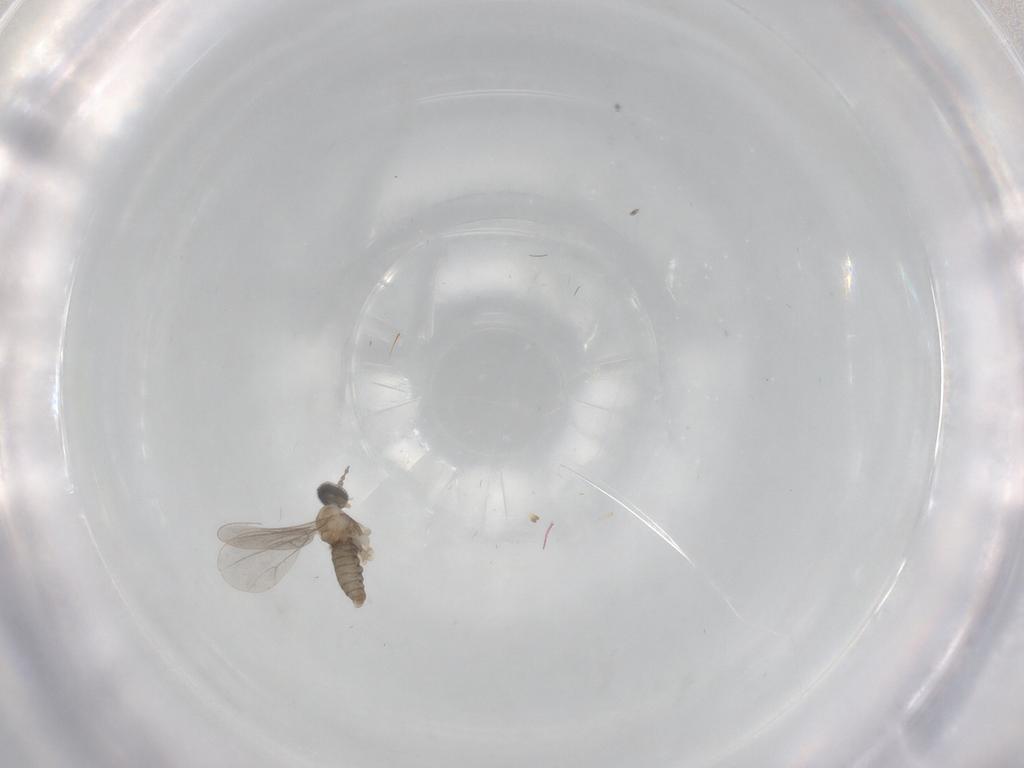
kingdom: Animalia
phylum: Arthropoda
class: Insecta
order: Diptera
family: Cecidomyiidae
